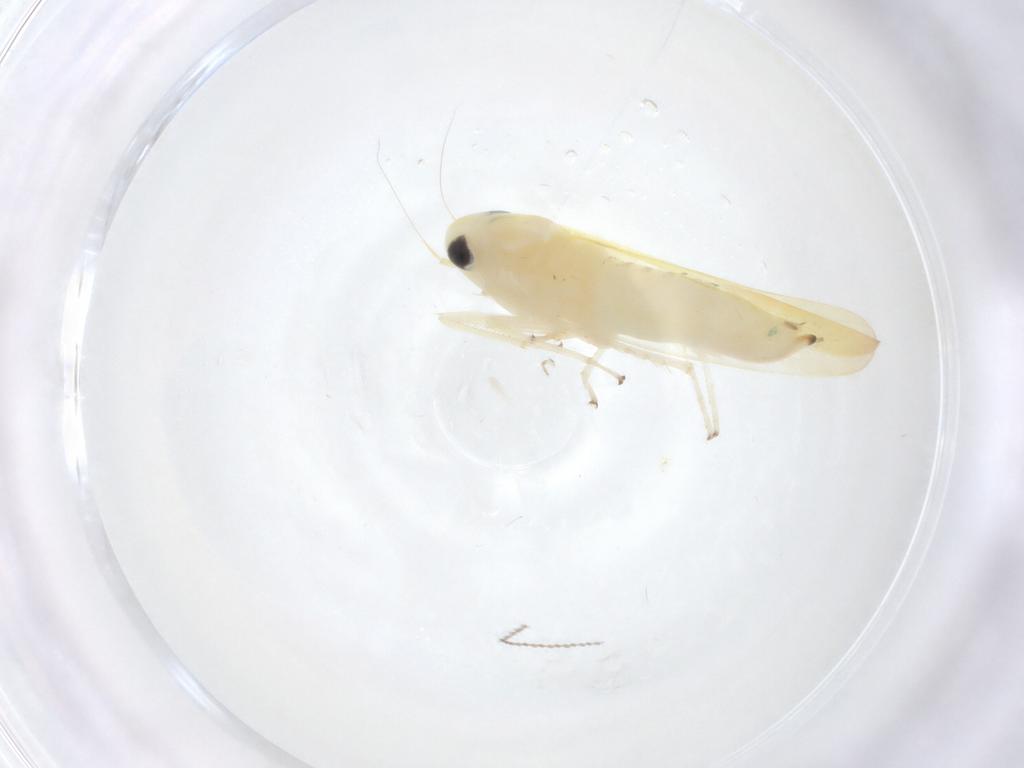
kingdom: Animalia
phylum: Arthropoda
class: Insecta
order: Hemiptera
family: Cicadellidae
